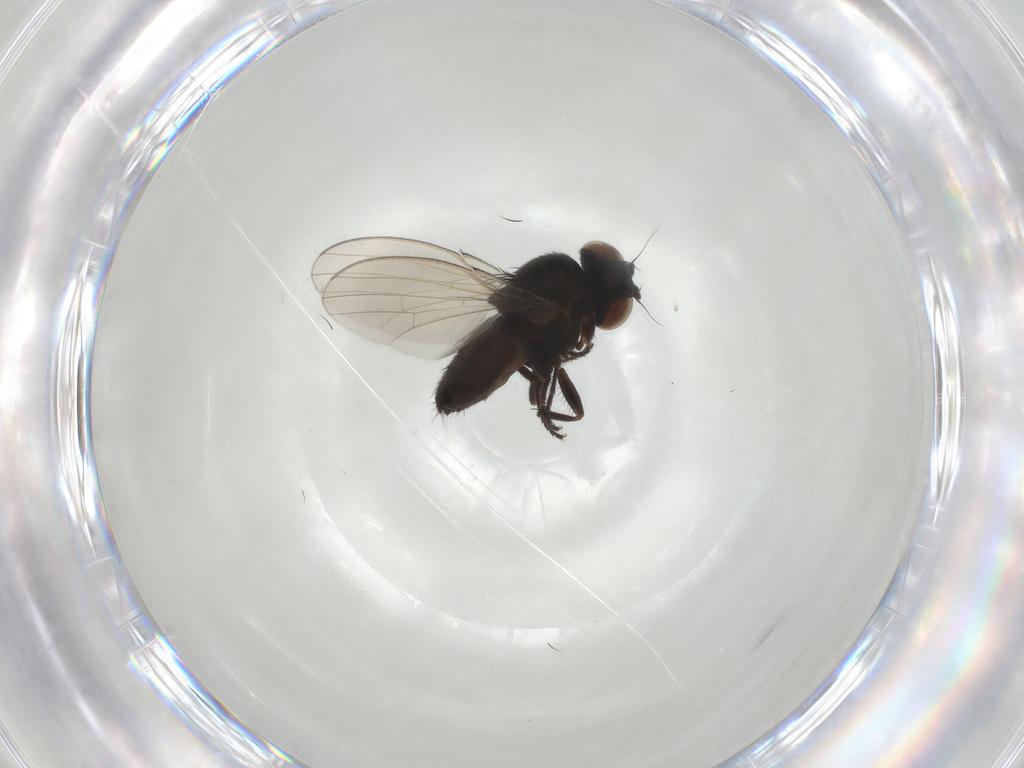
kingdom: Animalia
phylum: Arthropoda
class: Insecta
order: Diptera
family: Milichiidae
